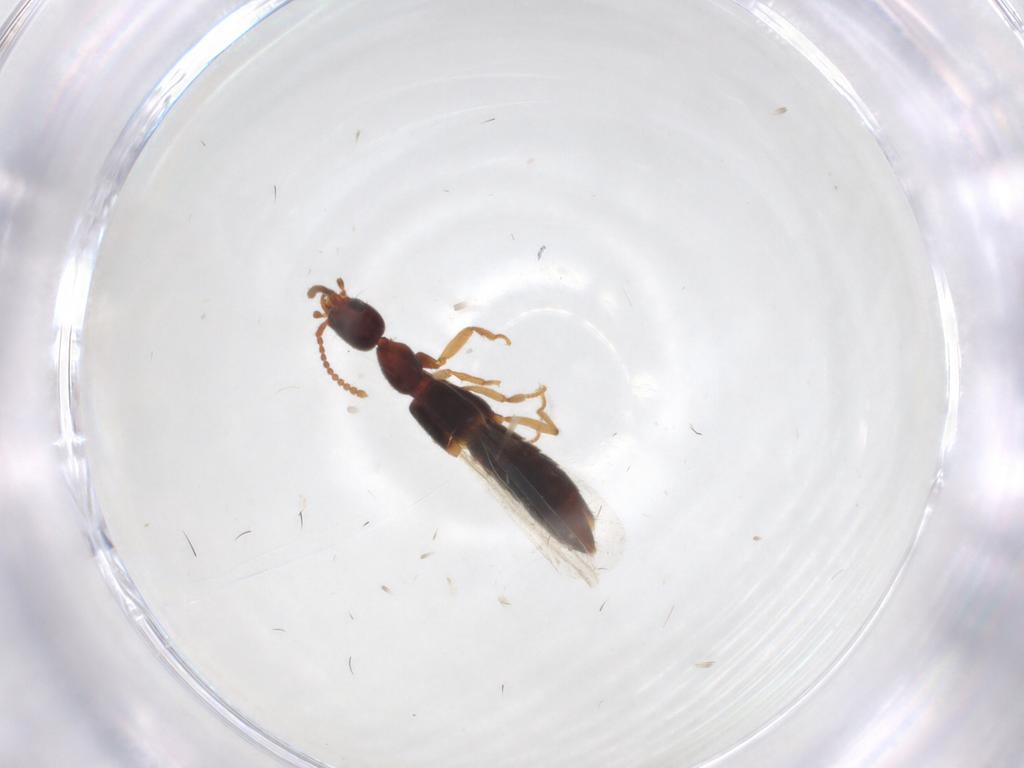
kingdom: Animalia
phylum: Arthropoda
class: Insecta
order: Coleoptera
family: Staphylinidae
